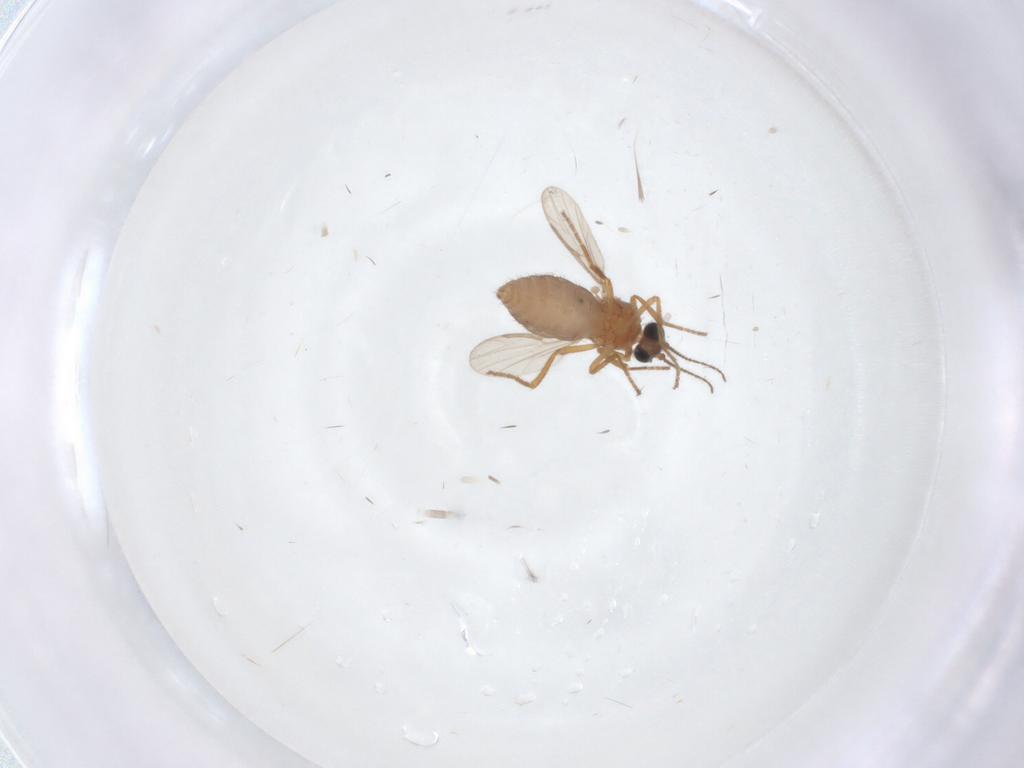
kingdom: Animalia
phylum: Arthropoda
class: Insecta
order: Diptera
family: Ceratopogonidae
